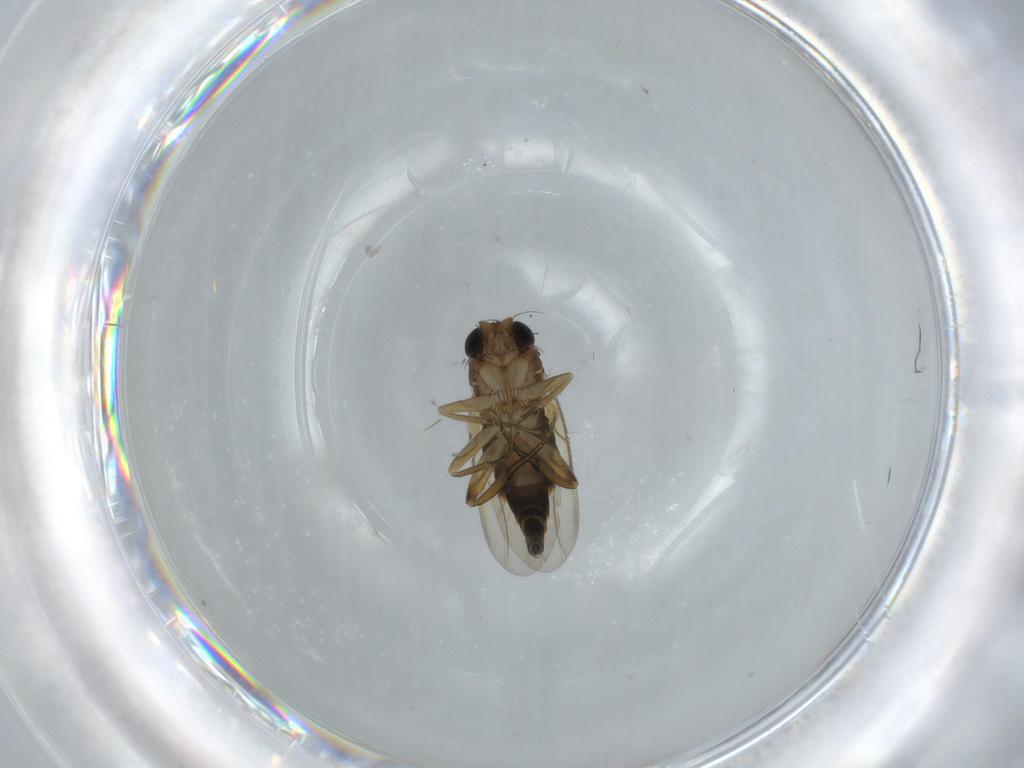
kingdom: Animalia
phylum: Arthropoda
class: Insecta
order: Diptera
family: Phoridae
